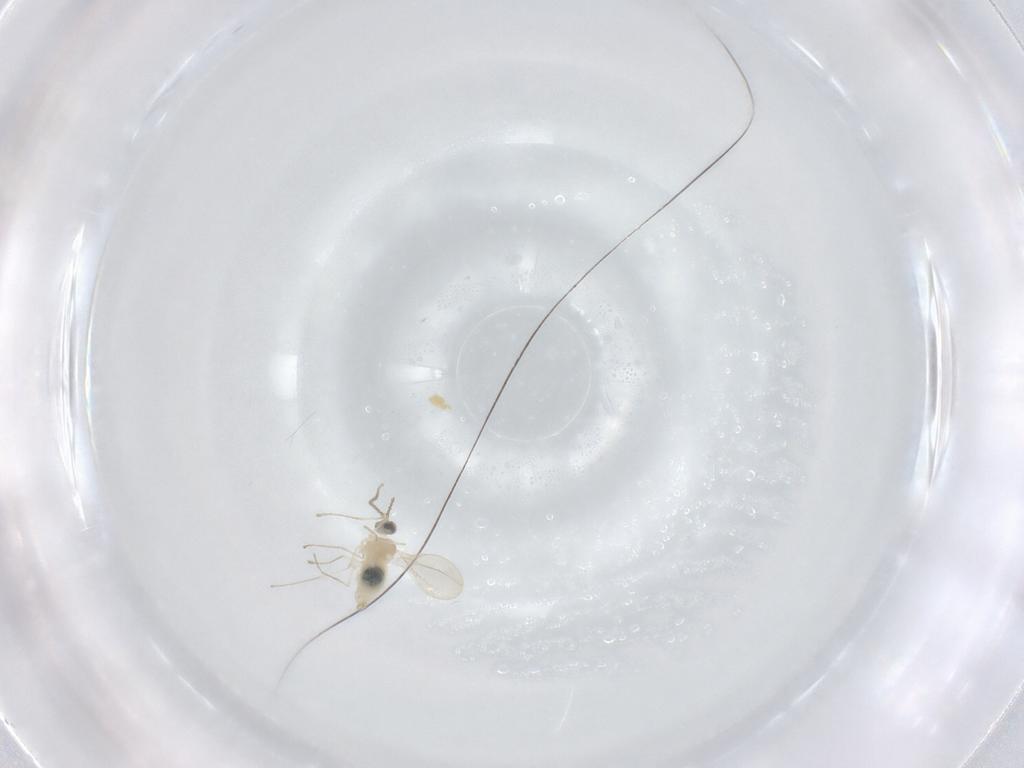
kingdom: Animalia
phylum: Arthropoda
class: Insecta
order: Diptera
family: Cecidomyiidae
